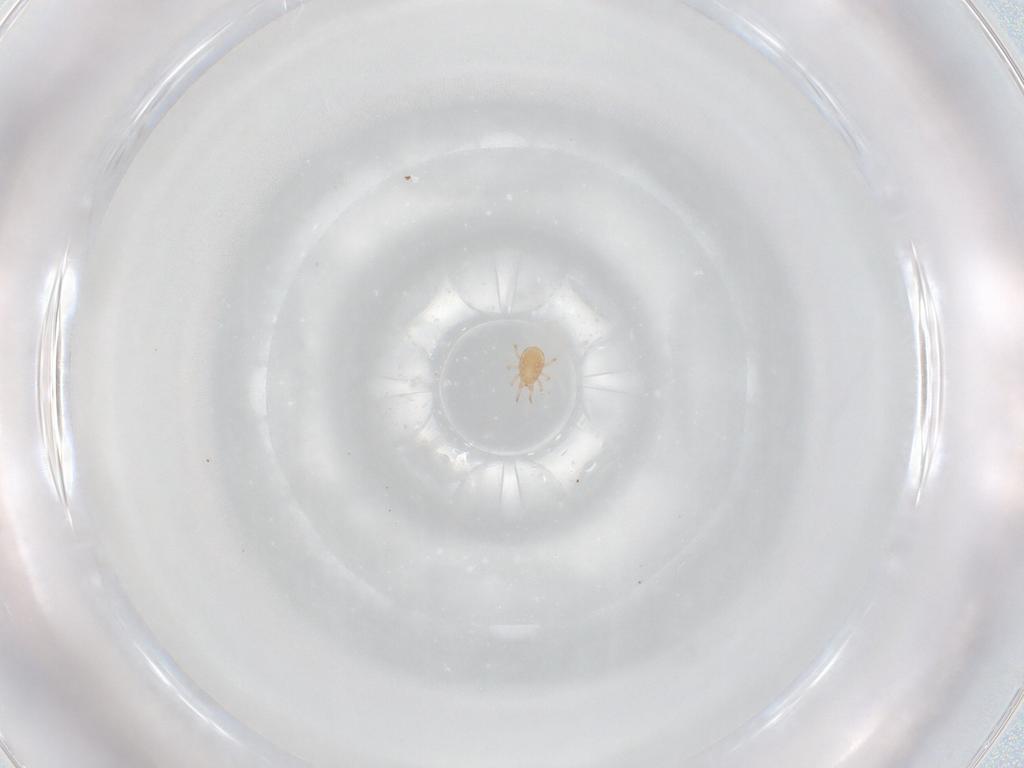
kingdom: Animalia
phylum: Arthropoda
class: Arachnida
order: Mesostigmata
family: Phytoseiidae
